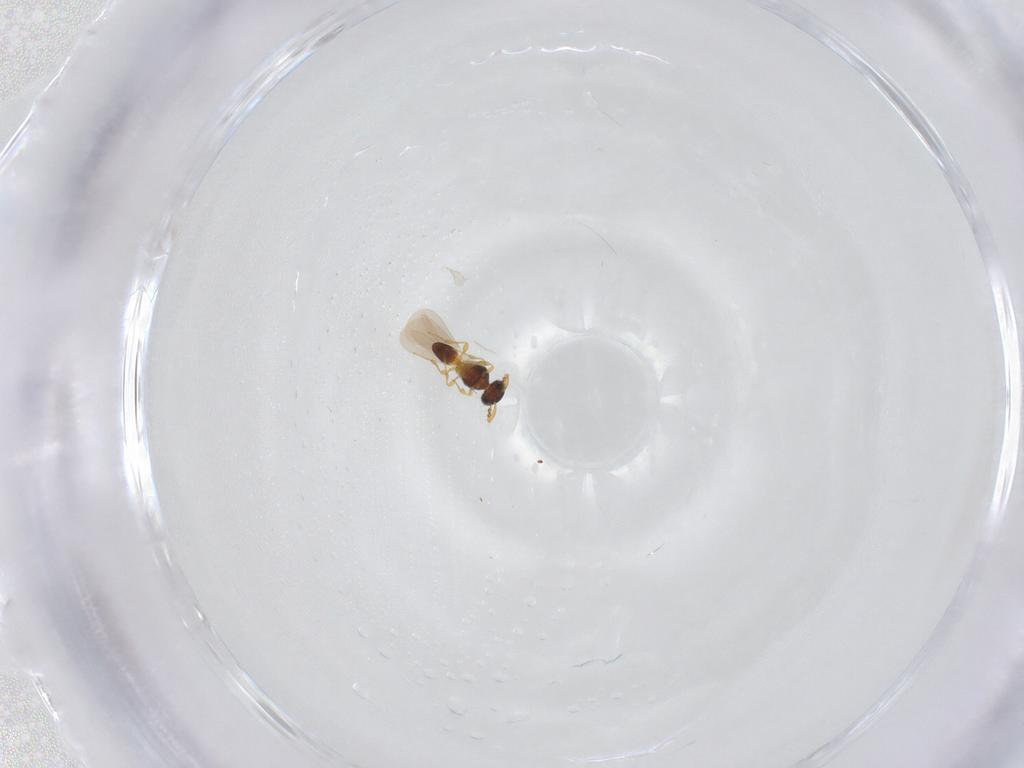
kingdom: Animalia
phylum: Arthropoda
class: Insecta
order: Diptera
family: Psychodidae
